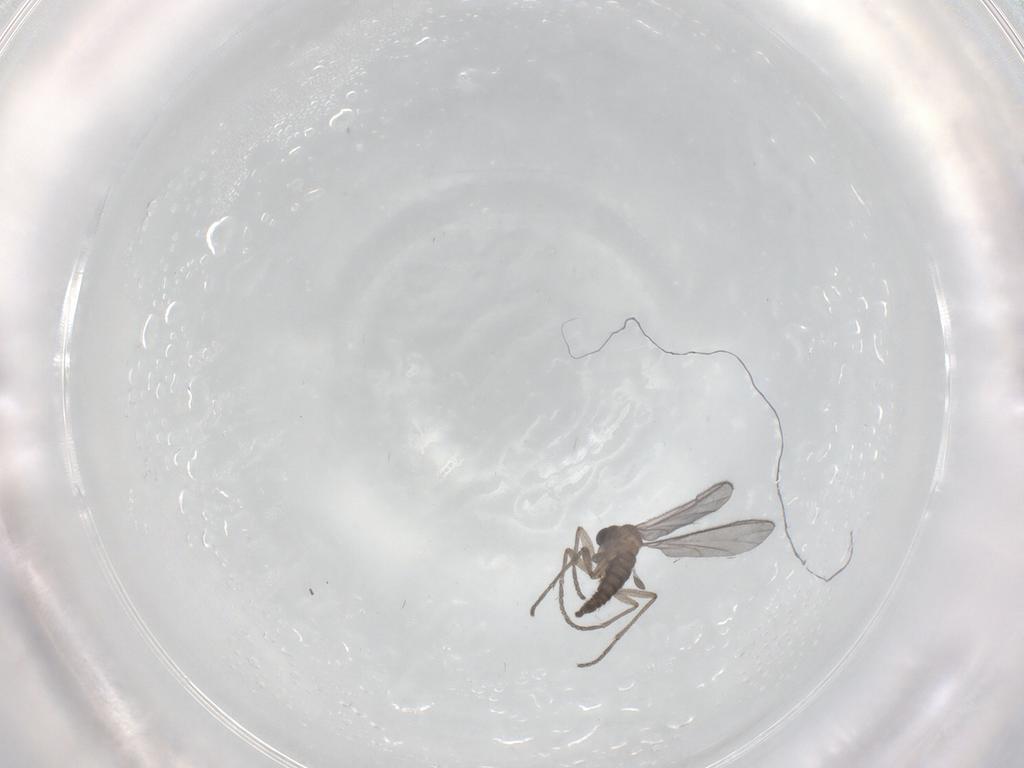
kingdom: Animalia
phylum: Arthropoda
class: Insecta
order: Diptera
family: Sciaridae
